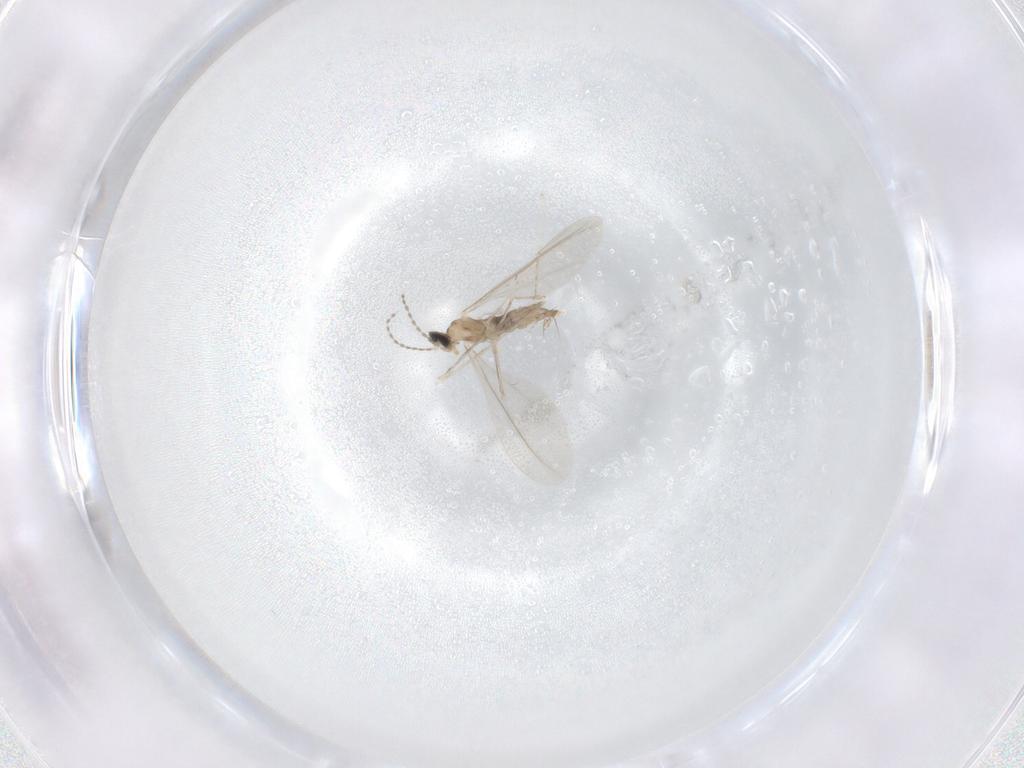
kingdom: Animalia
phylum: Arthropoda
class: Insecta
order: Diptera
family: Cecidomyiidae
